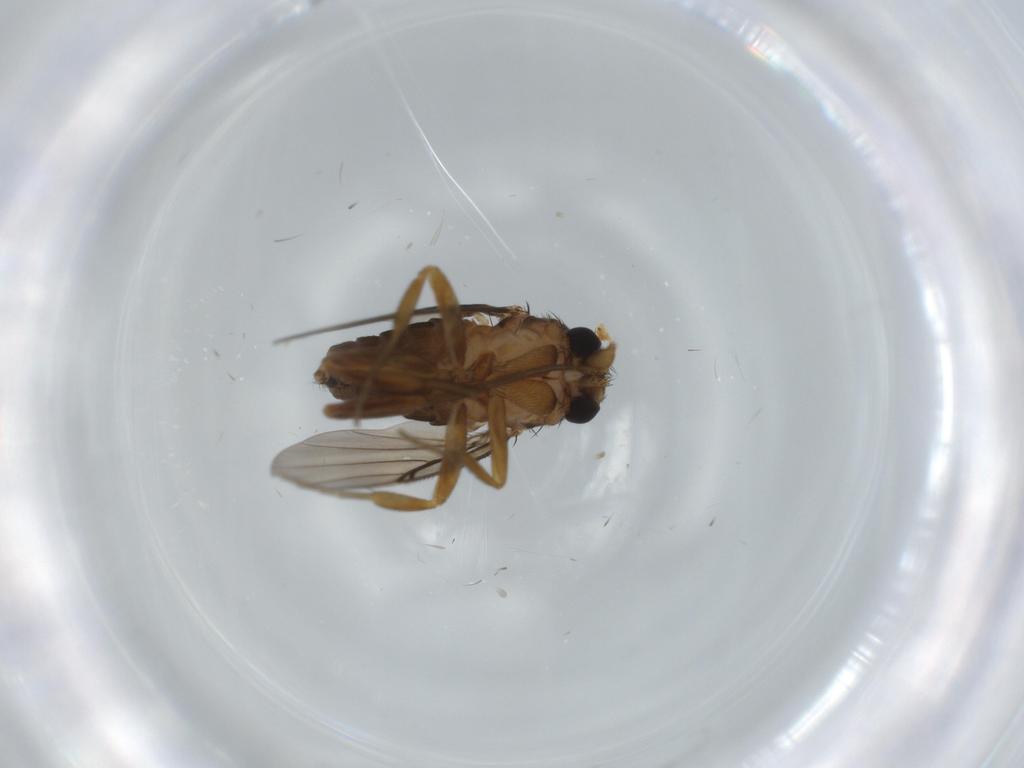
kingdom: Animalia
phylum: Arthropoda
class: Insecta
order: Diptera
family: Phoridae
